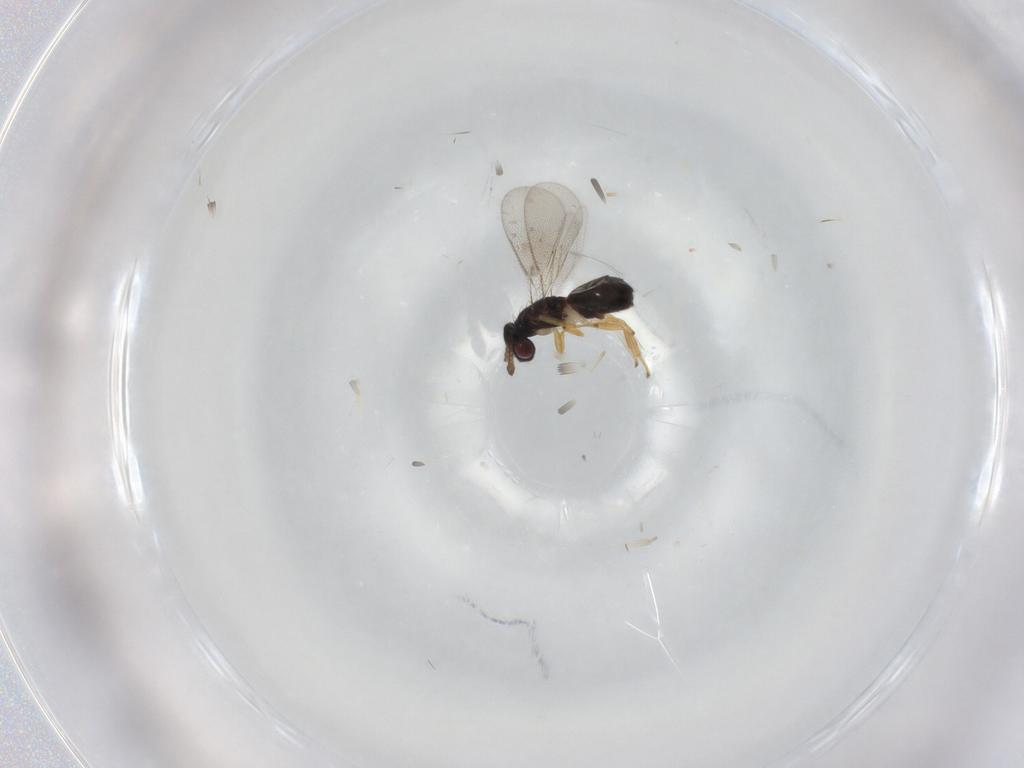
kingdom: Animalia
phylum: Arthropoda
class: Insecta
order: Hymenoptera
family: Eulophidae
